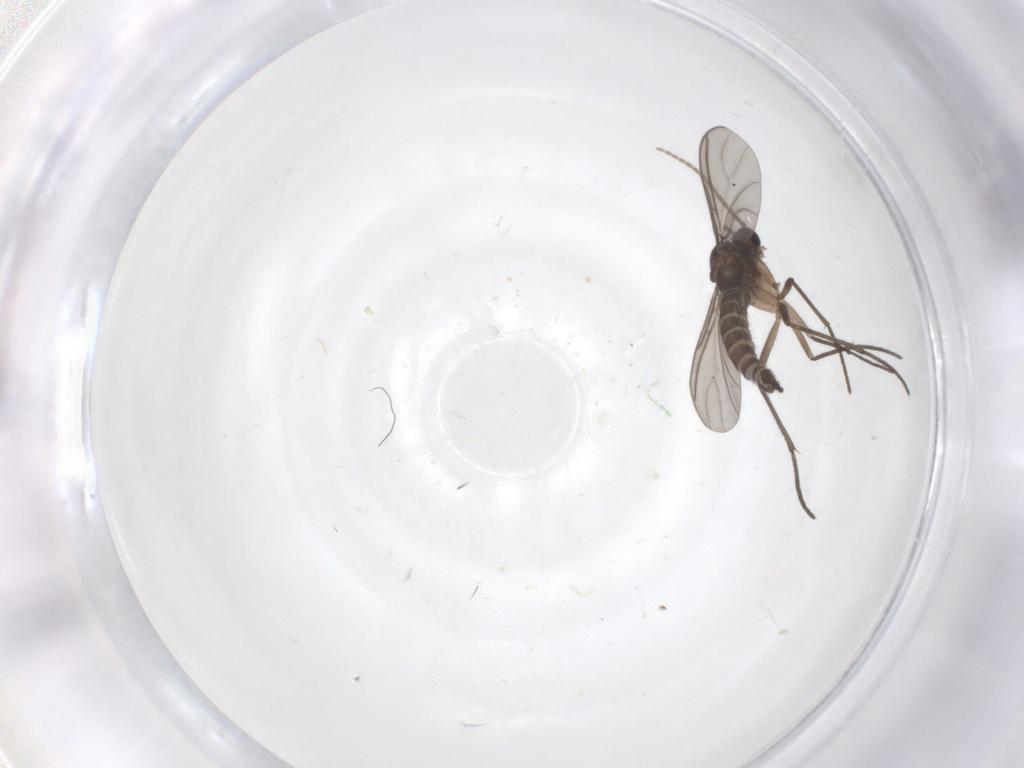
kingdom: Animalia
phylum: Arthropoda
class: Insecta
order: Diptera
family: Sciaridae
